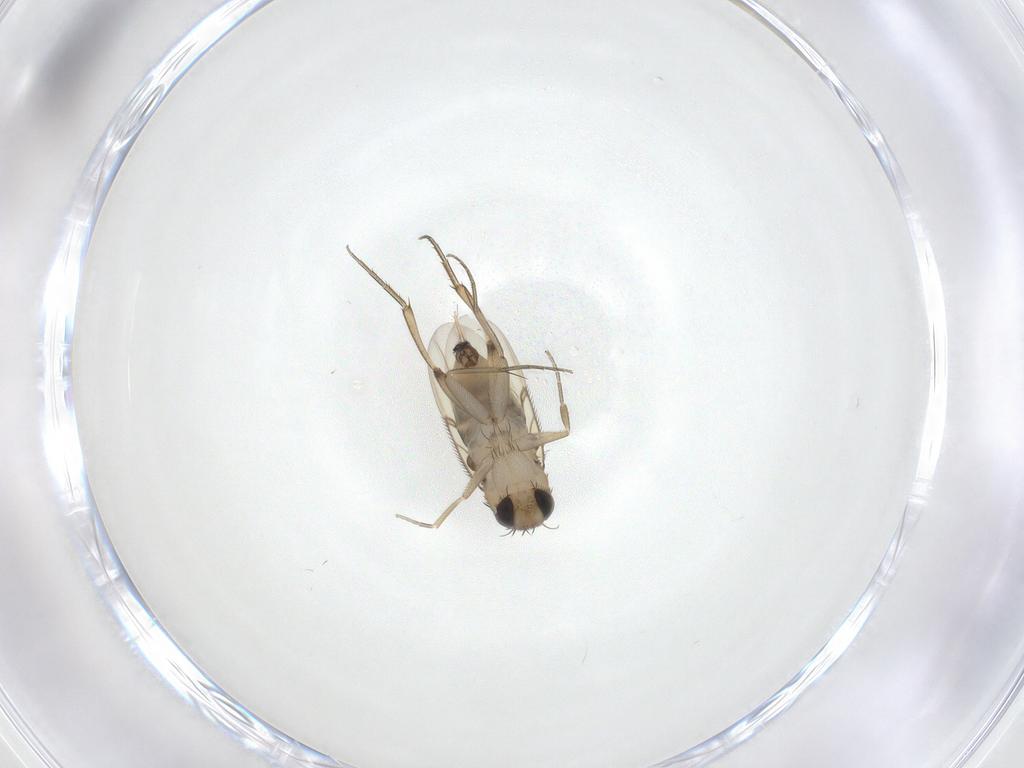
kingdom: Animalia
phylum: Arthropoda
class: Insecta
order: Diptera
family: Phoridae
